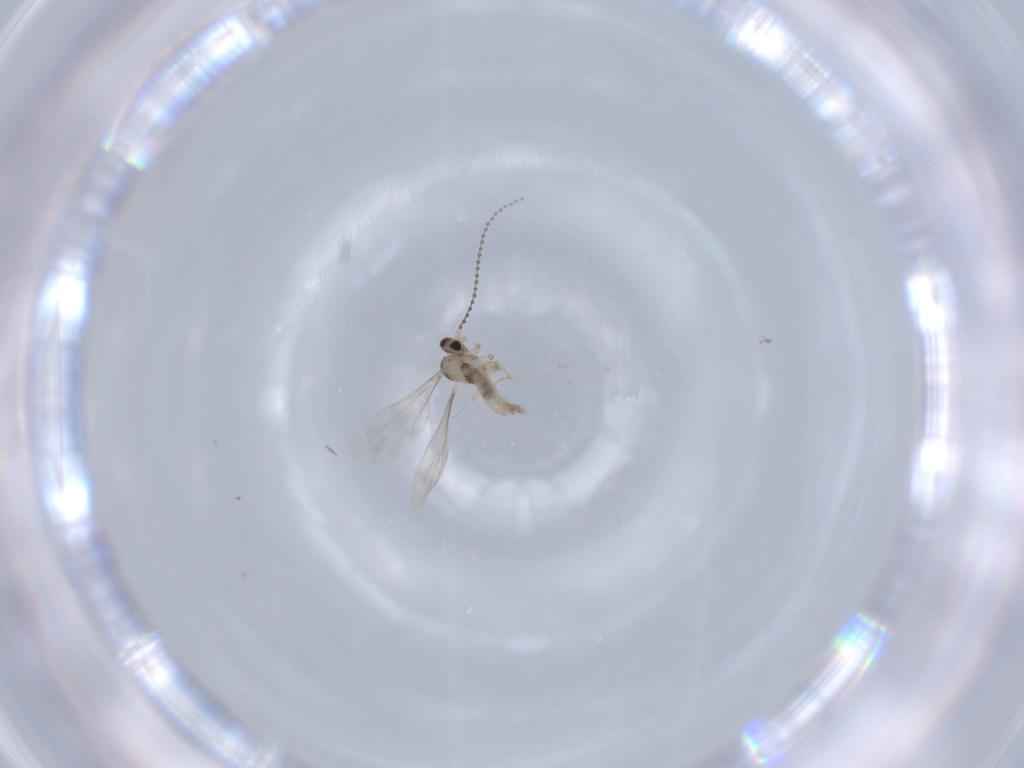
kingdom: Animalia
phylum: Arthropoda
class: Insecta
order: Diptera
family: Cecidomyiidae
